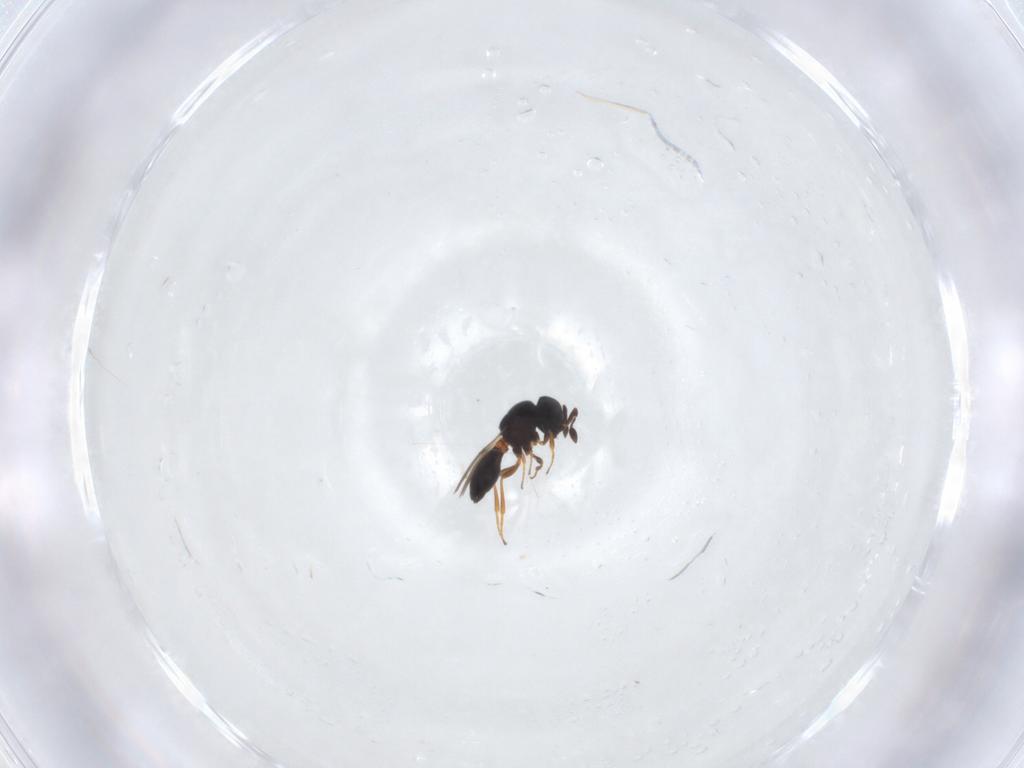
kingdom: Animalia
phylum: Arthropoda
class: Insecta
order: Hymenoptera
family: Scelionidae
